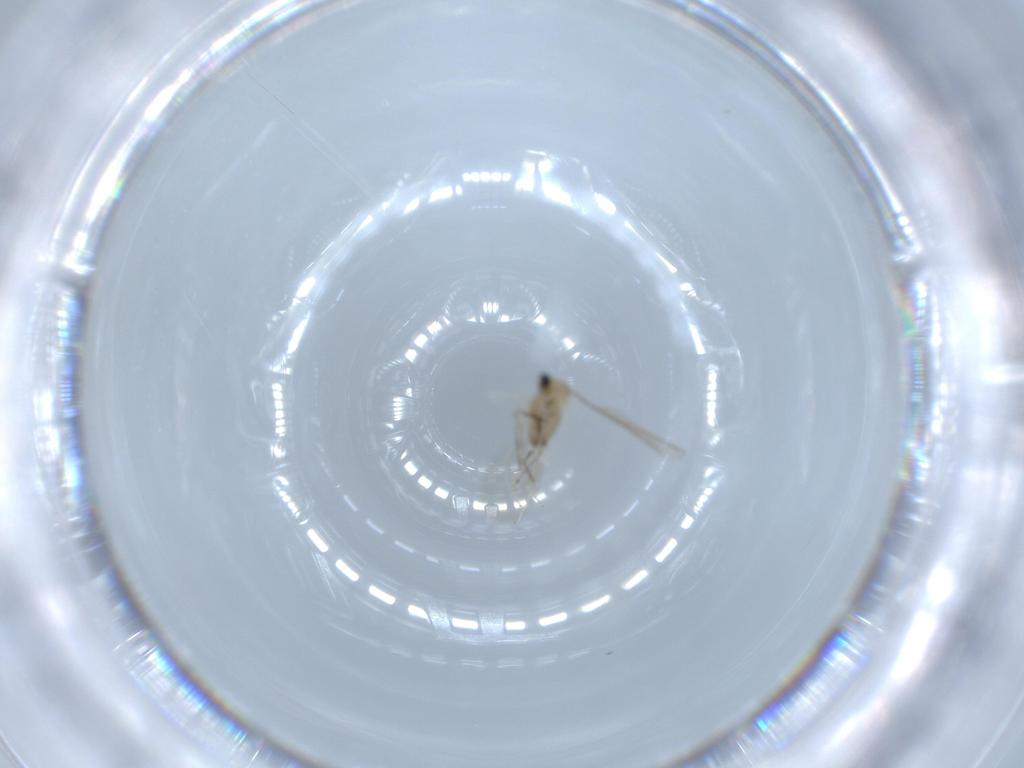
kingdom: Animalia
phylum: Arthropoda
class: Insecta
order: Diptera
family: Cecidomyiidae
